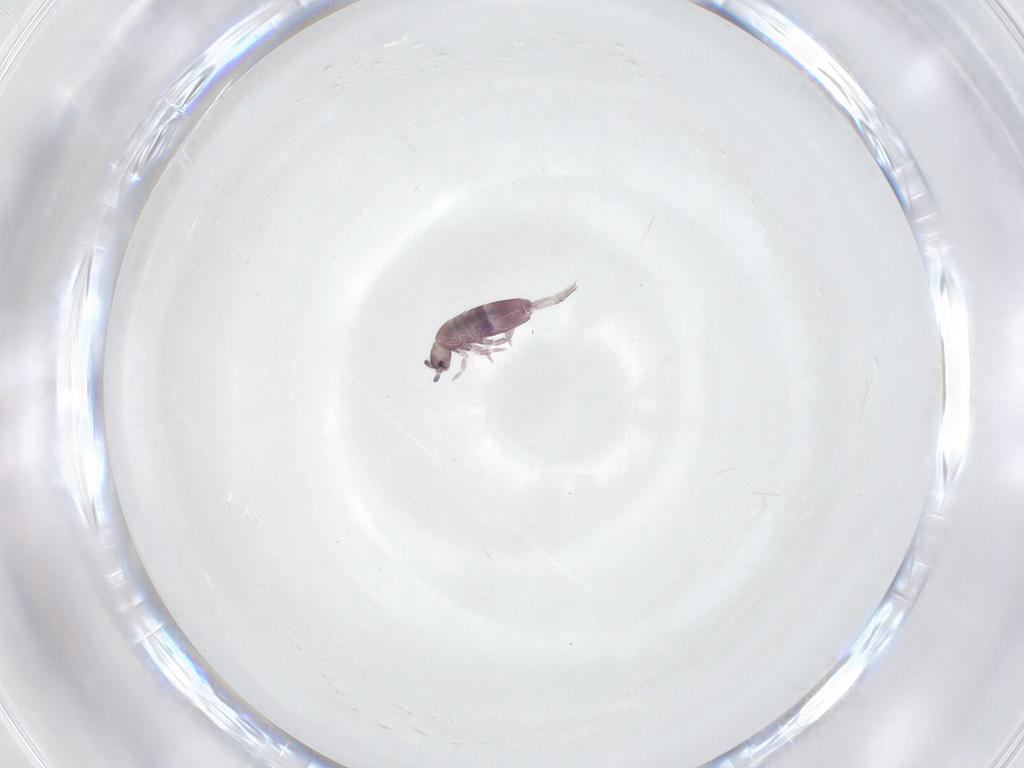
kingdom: Animalia
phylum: Arthropoda
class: Collembola
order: Entomobryomorpha
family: Entomobryidae
